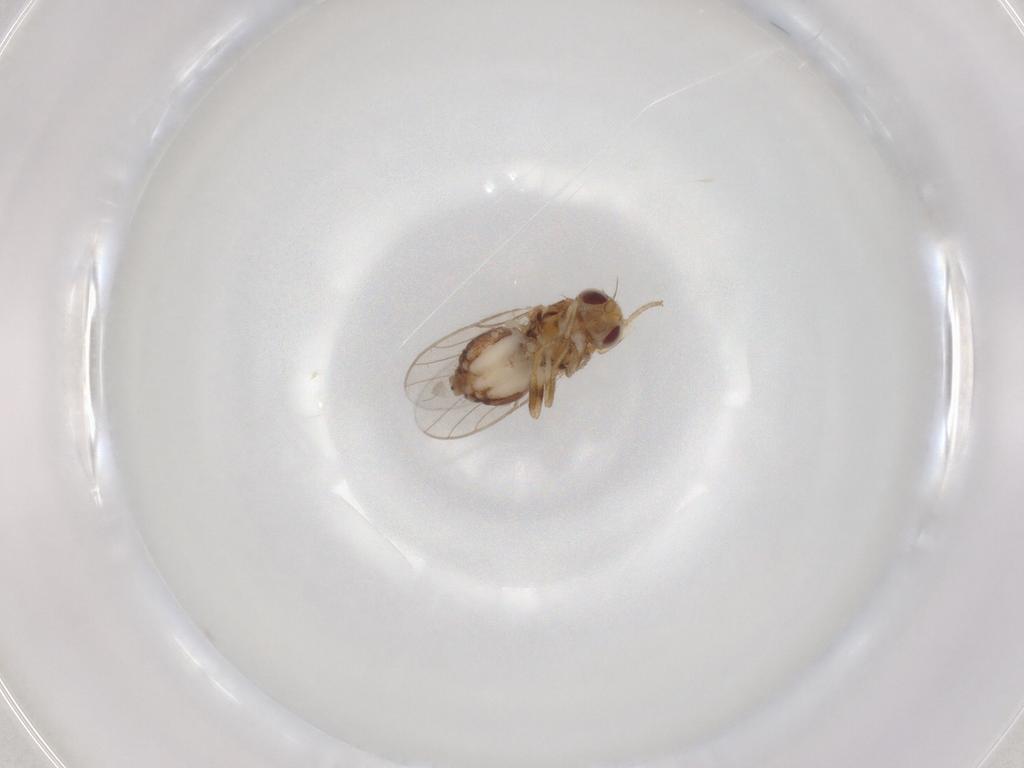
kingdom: Animalia
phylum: Arthropoda
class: Insecta
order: Diptera
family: Chloropidae
